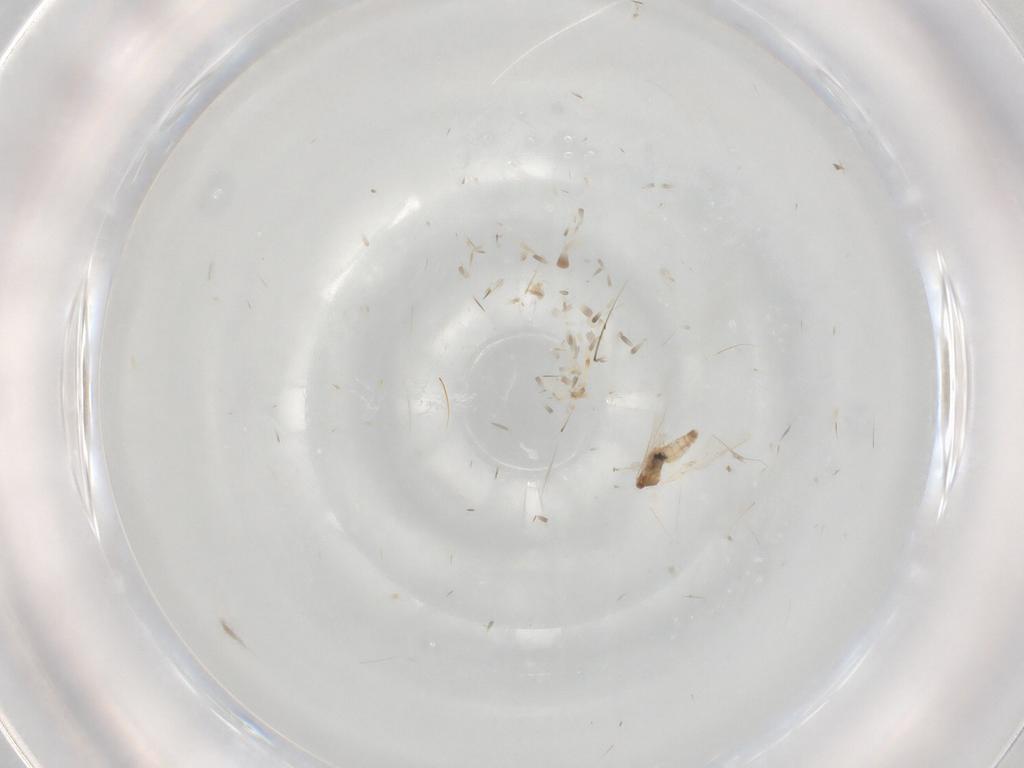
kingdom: Animalia
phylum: Arthropoda
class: Insecta
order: Diptera
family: Cecidomyiidae
